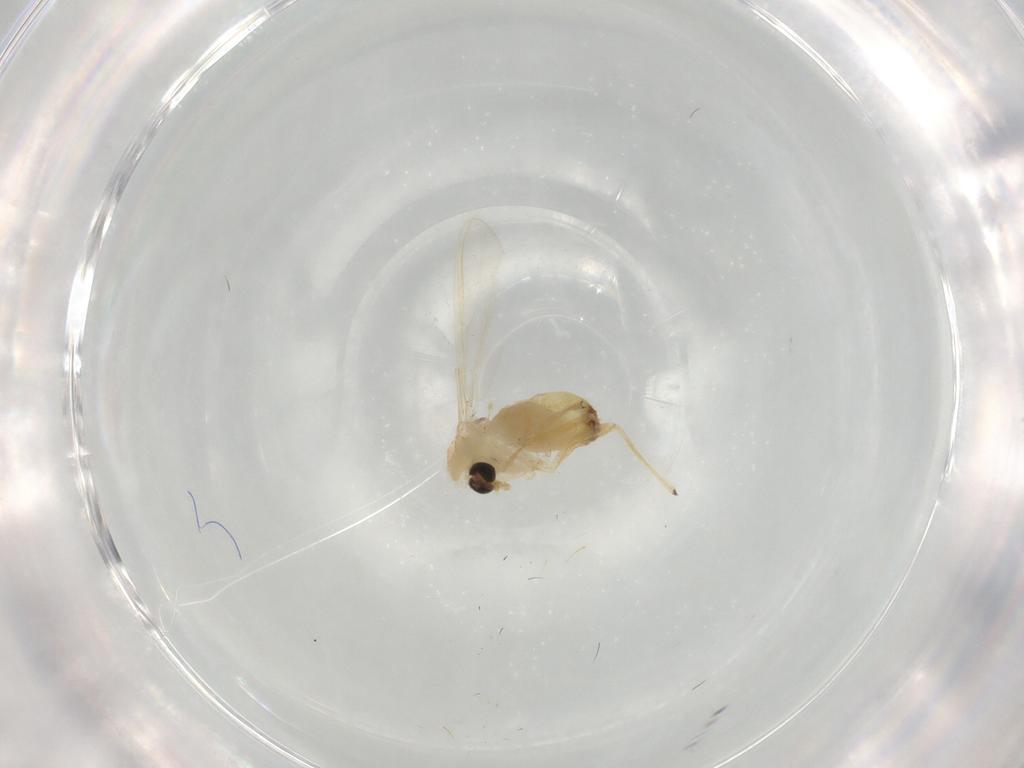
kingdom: Animalia
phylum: Arthropoda
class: Insecta
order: Diptera
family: Chironomidae
